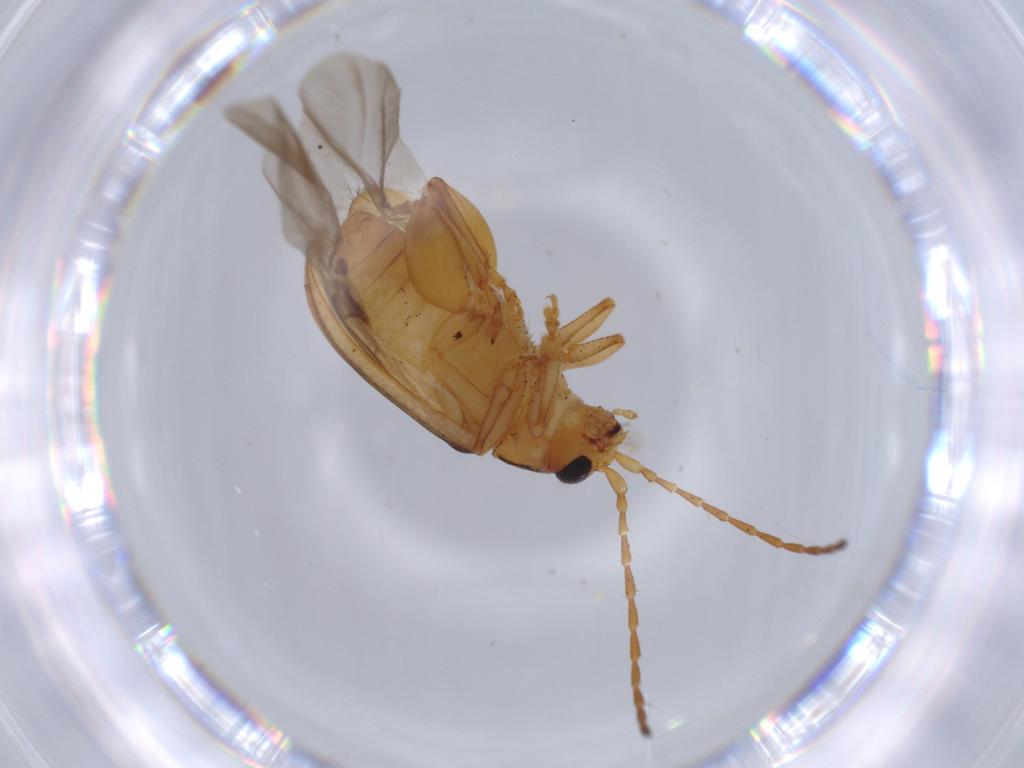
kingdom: Animalia
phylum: Arthropoda
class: Insecta
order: Coleoptera
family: Chrysomelidae
